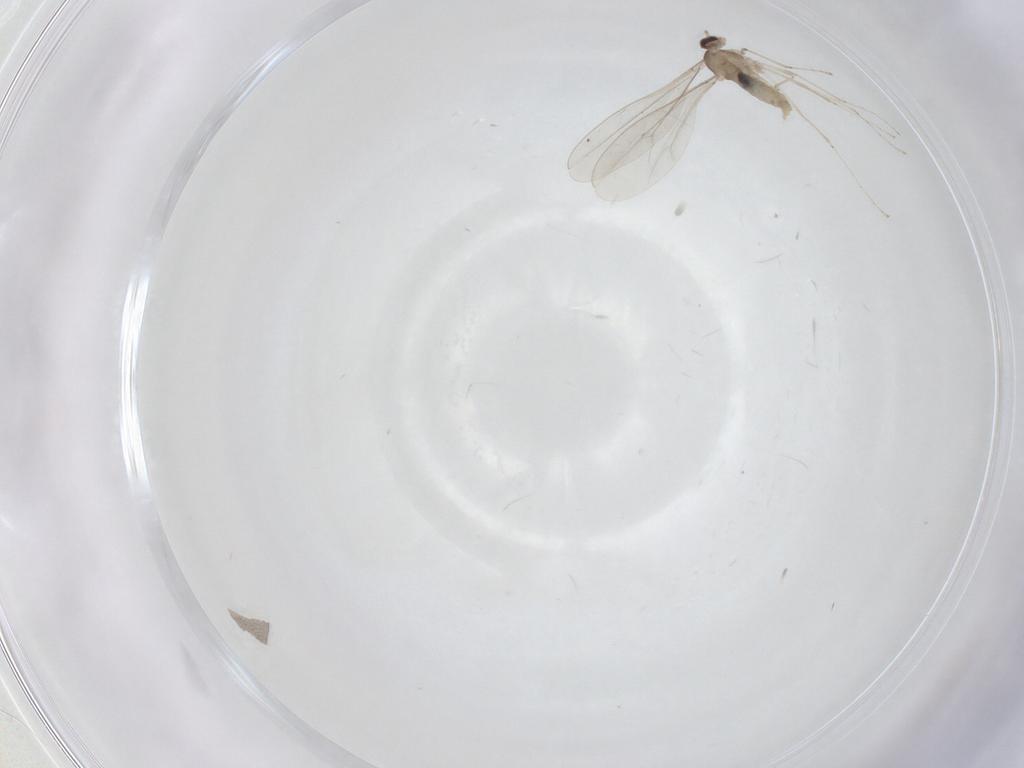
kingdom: Animalia
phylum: Arthropoda
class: Insecta
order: Diptera
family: Cecidomyiidae
